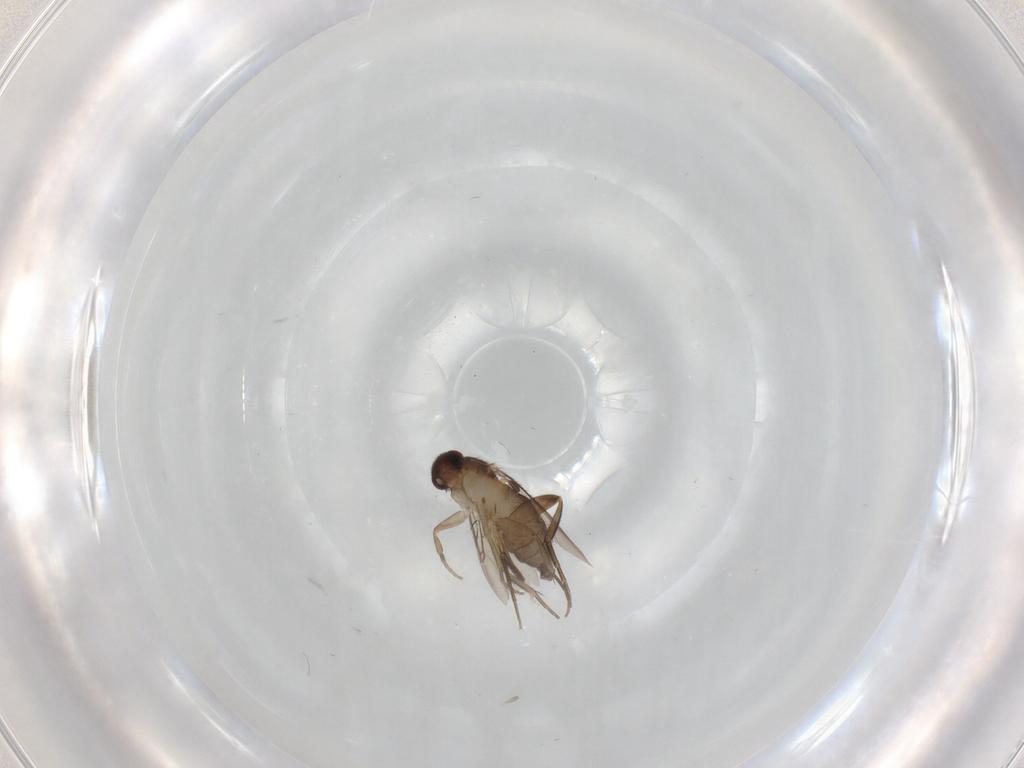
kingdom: Animalia
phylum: Arthropoda
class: Insecta
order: Diptera
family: Phoridae
